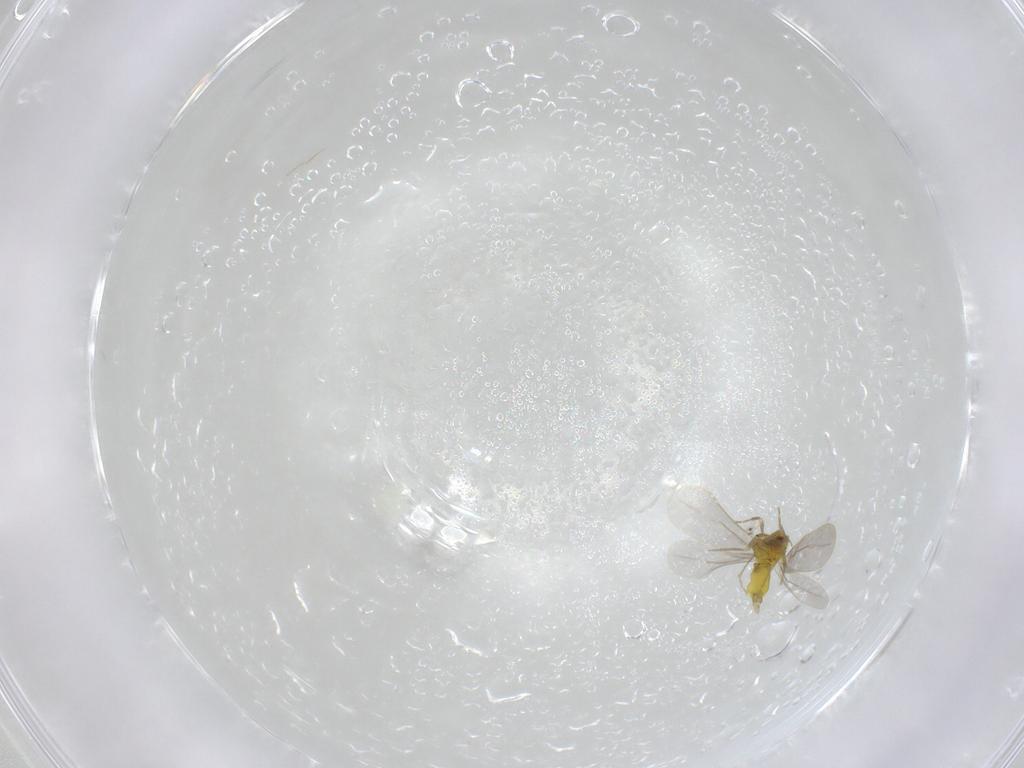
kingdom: Animalia
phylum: Arthropoda
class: Insecta
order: Hemiptera
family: Aleyrodidae
